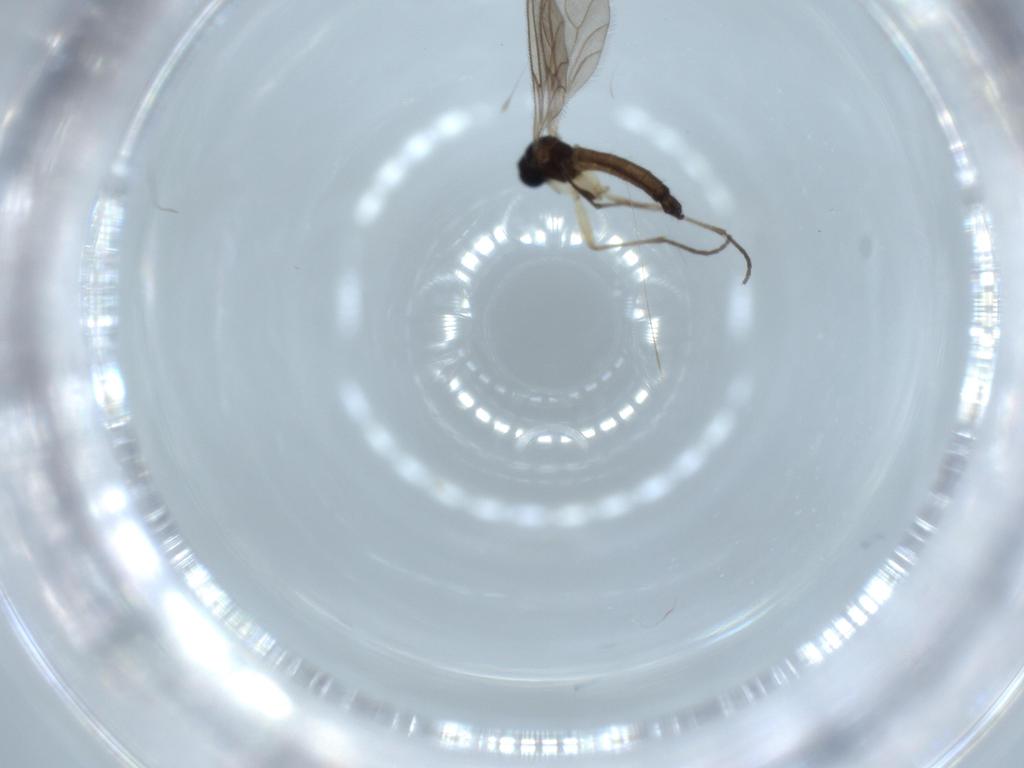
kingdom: Animalia
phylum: Arthropoda
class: Insecta
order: Diptera
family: Sciaridae
